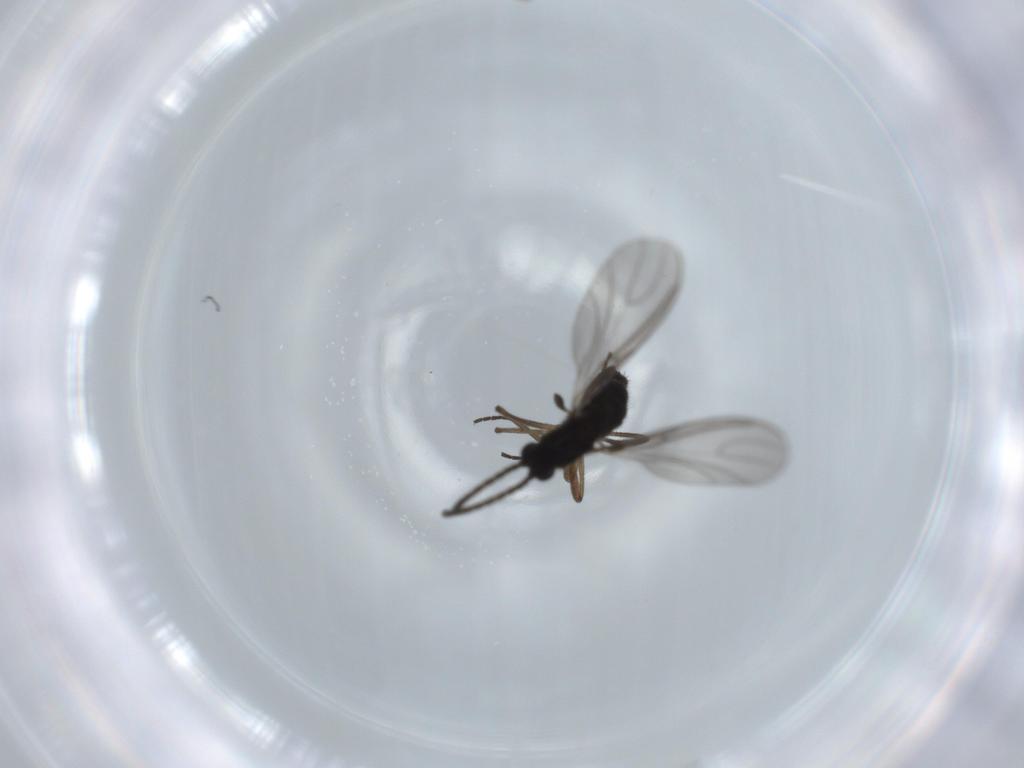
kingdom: Animalia
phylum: Arthropoda
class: Insecta
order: Diptera
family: Sciaridae
